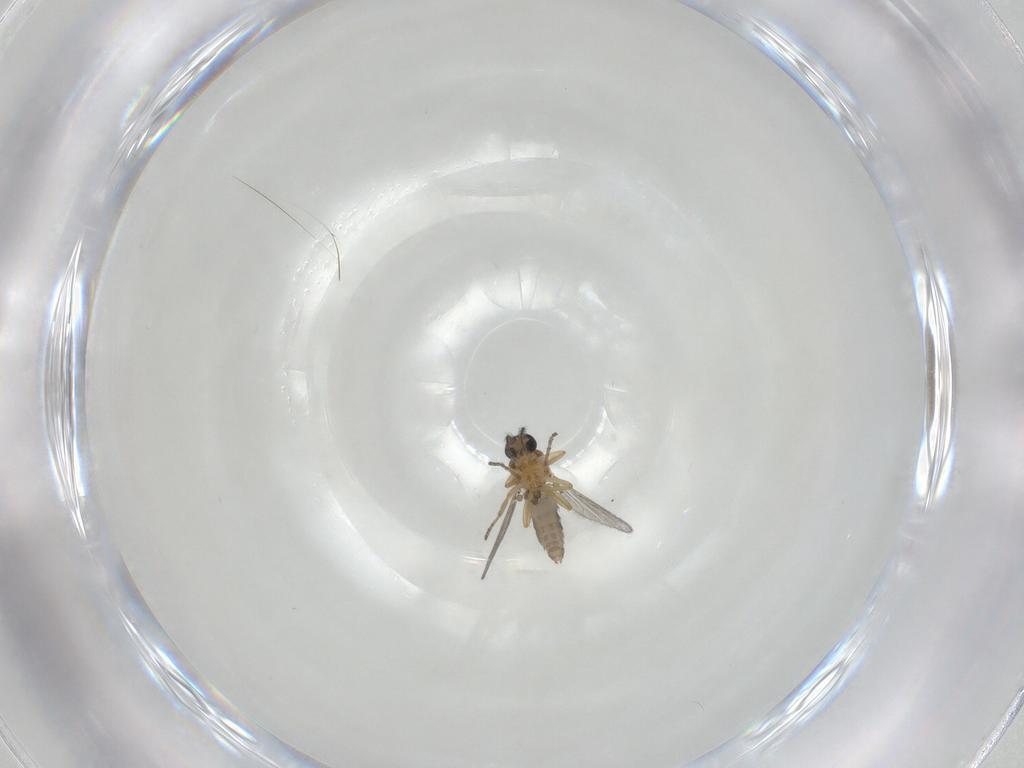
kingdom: Animalia
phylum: Arthropoda
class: Insecta
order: Diptera
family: Ceratopogonidae
